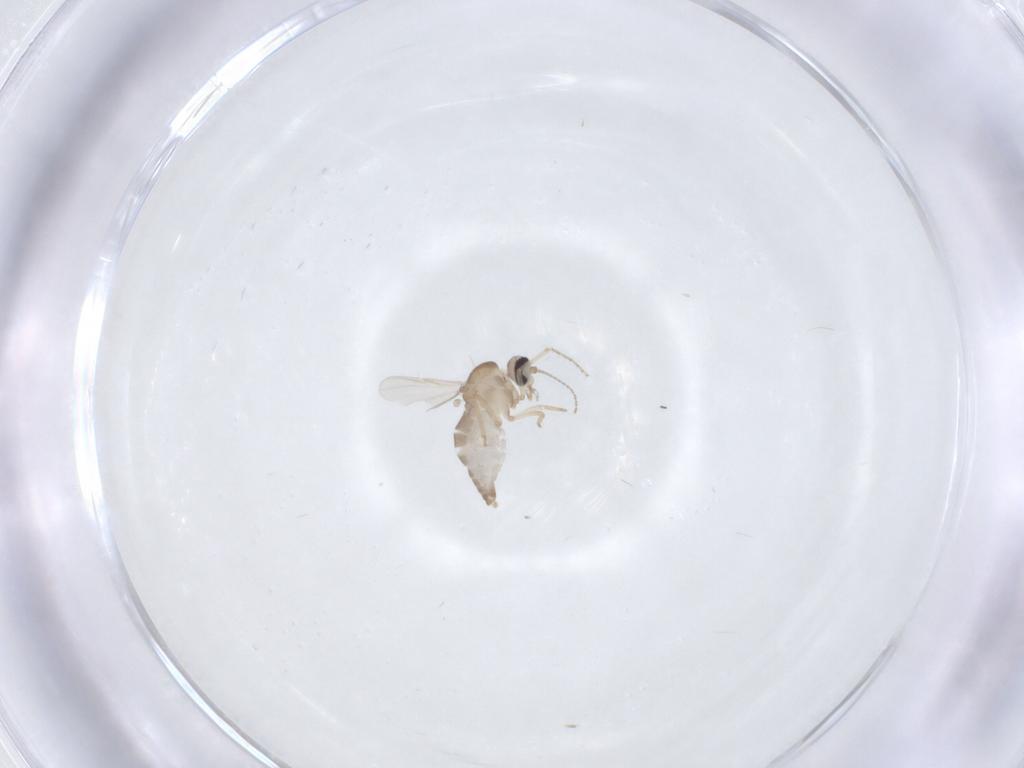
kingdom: Animalia
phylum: Arthropoda
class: Insecta
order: Diptera
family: Ceratopogonidae
